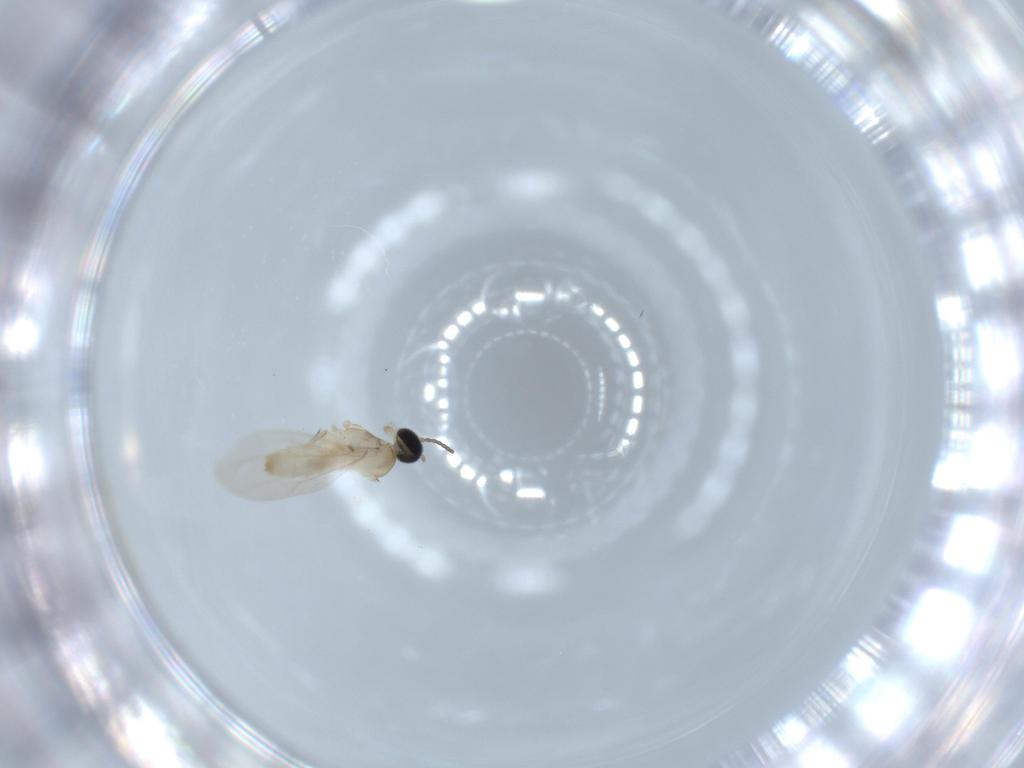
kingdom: Animalia
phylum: Arthropoda
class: Insecta
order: Diptera
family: Cecidomyiidae
